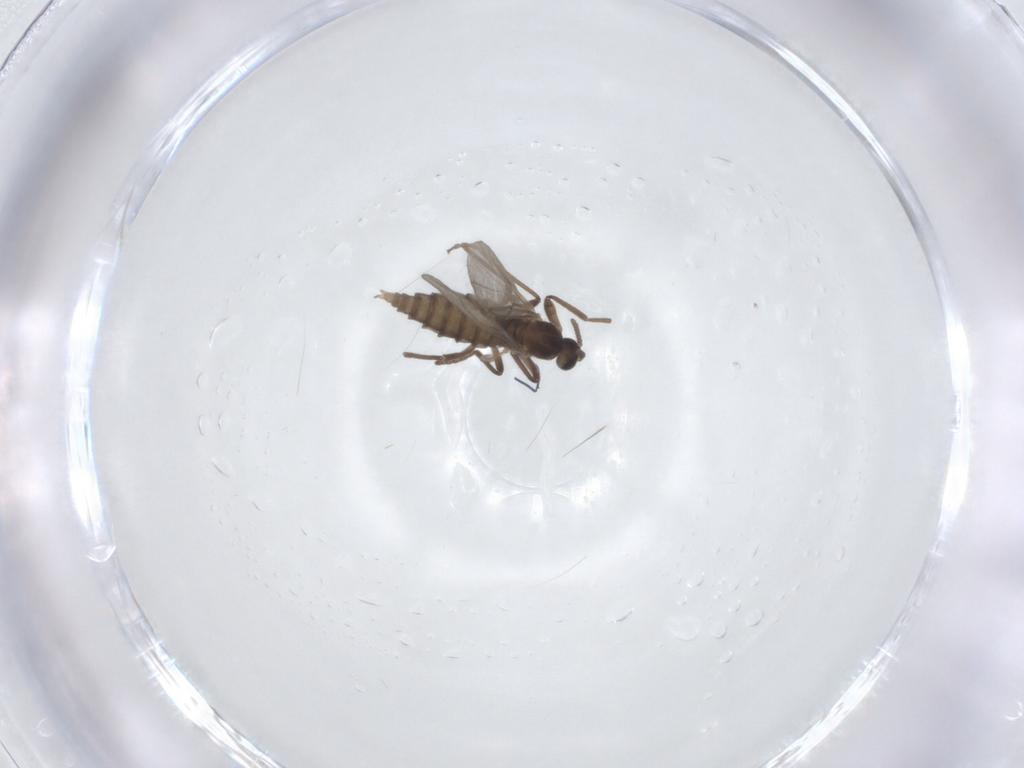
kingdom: Animalia
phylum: Arthropoda
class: Insecta
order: Diptera
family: Cecidomyiidae
